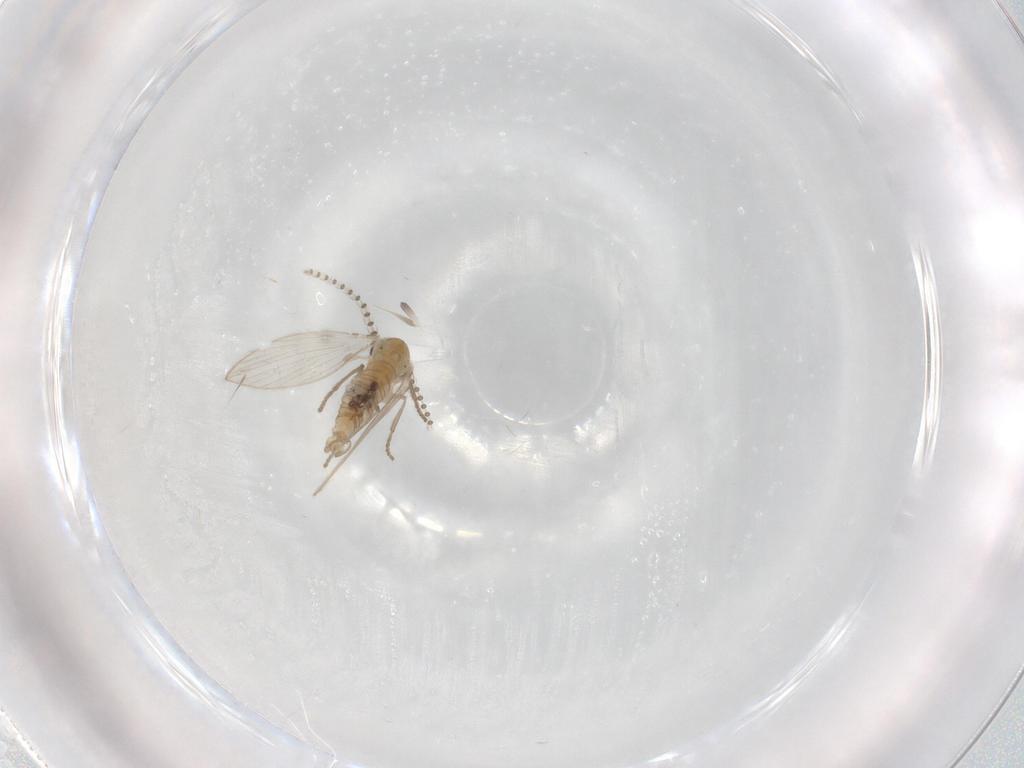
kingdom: Animalia
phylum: Arthropoda
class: Insecta
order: Diptera
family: Psychodidae
